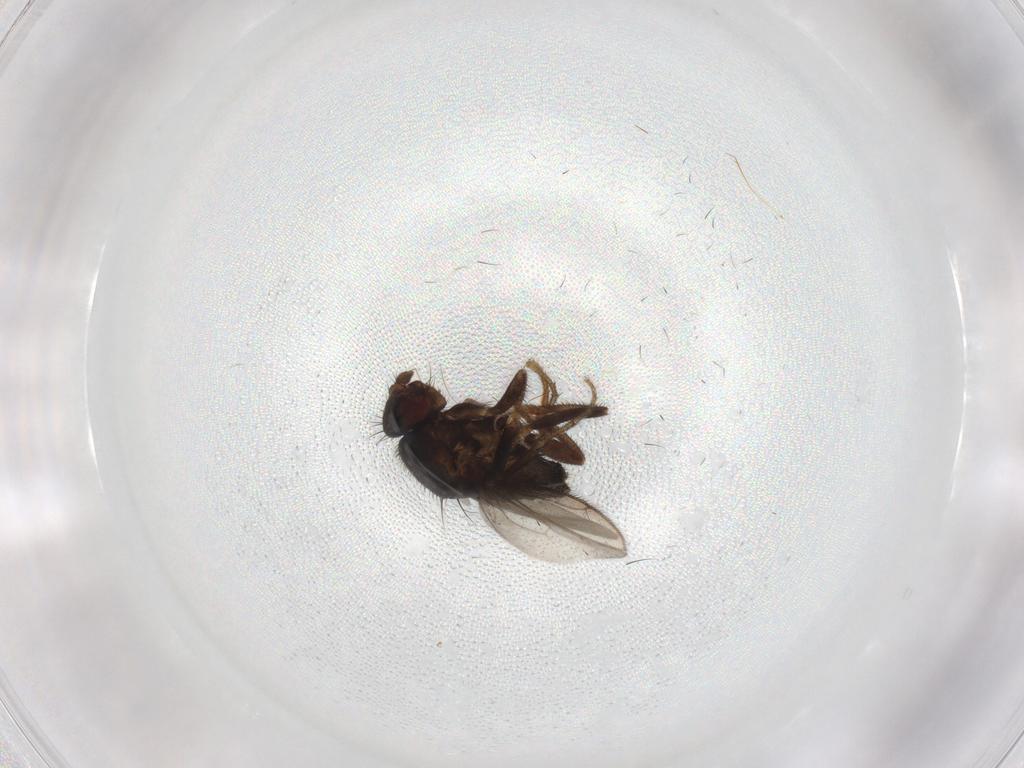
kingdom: Animalia
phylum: Arthropoda
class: Insecta
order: Diptera
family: Sphaeroceridae
